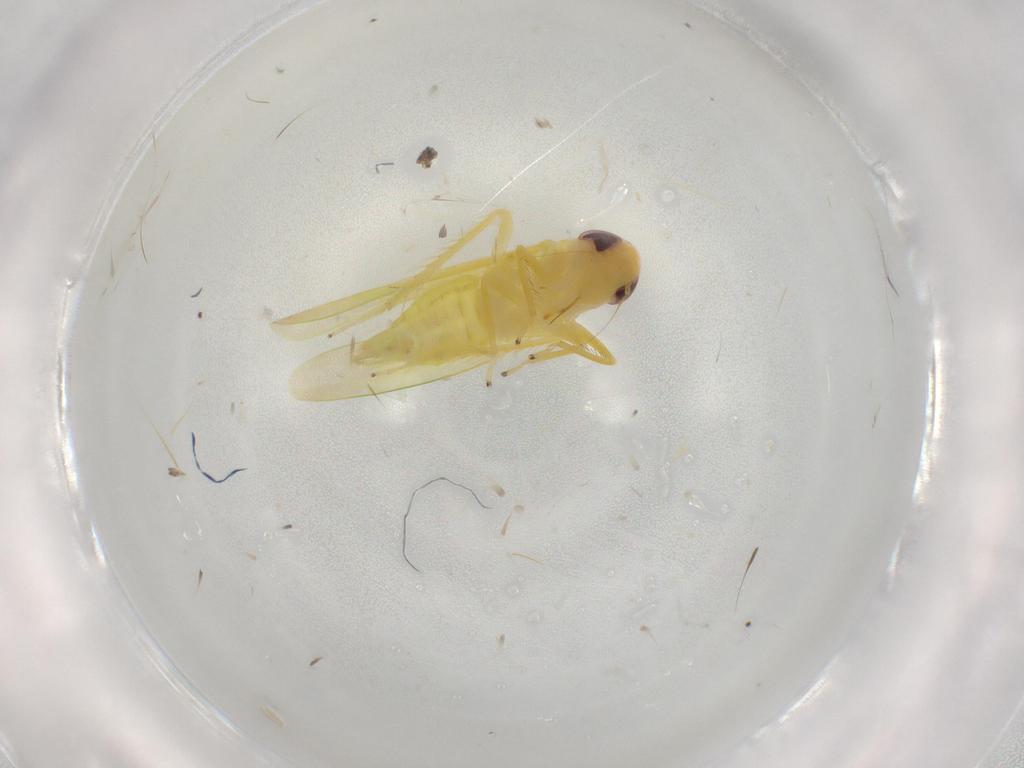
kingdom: Animalia
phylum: Arthropoda
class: Insecta
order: Hemiptera
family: Cicadellidae
